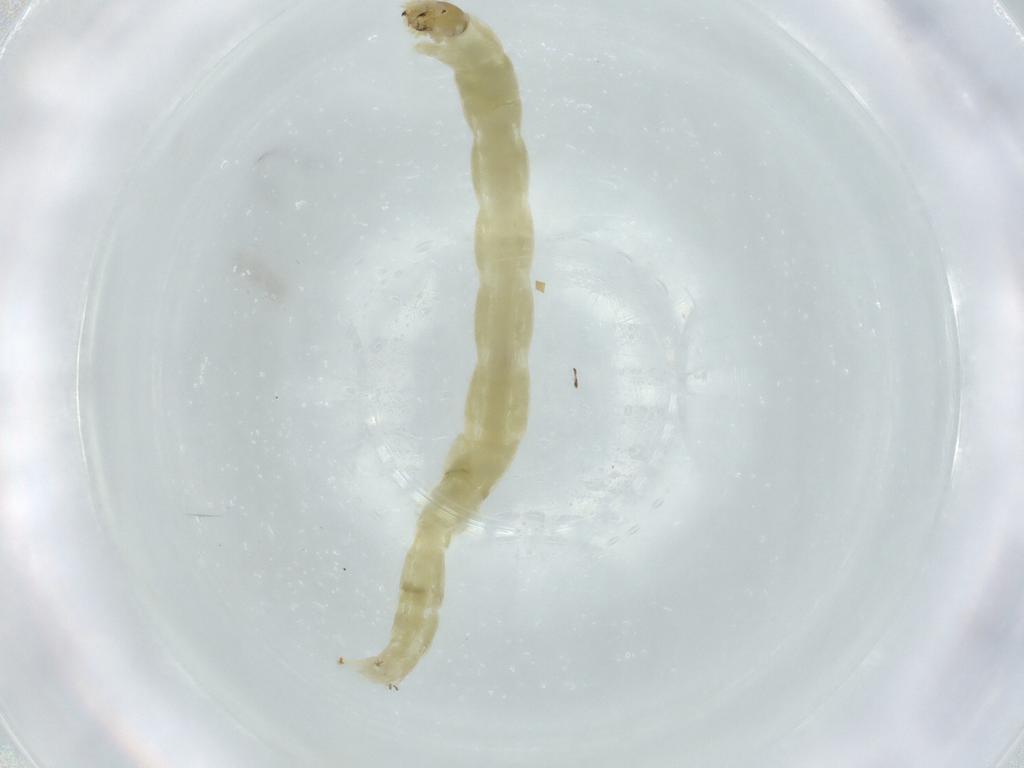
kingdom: Animalia
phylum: Arthropoda
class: Insecta
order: Diptera
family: Chironomidae
